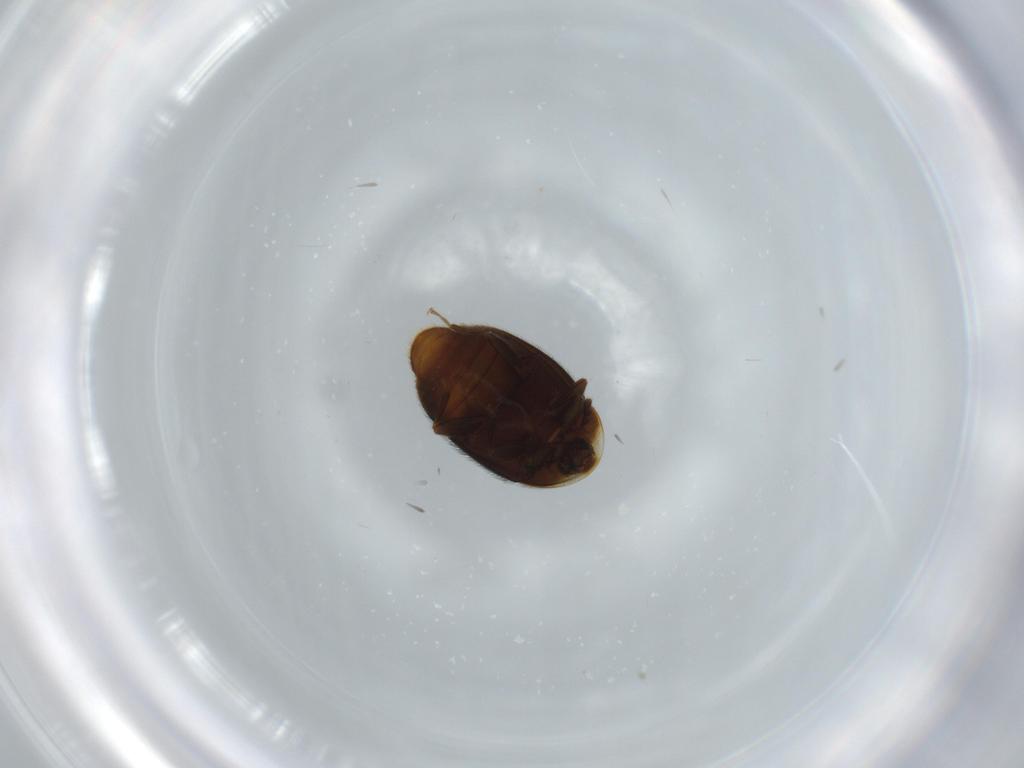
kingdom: Animalia
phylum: Arthropoda
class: Insecta
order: Coleoptera
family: Corylophidae
